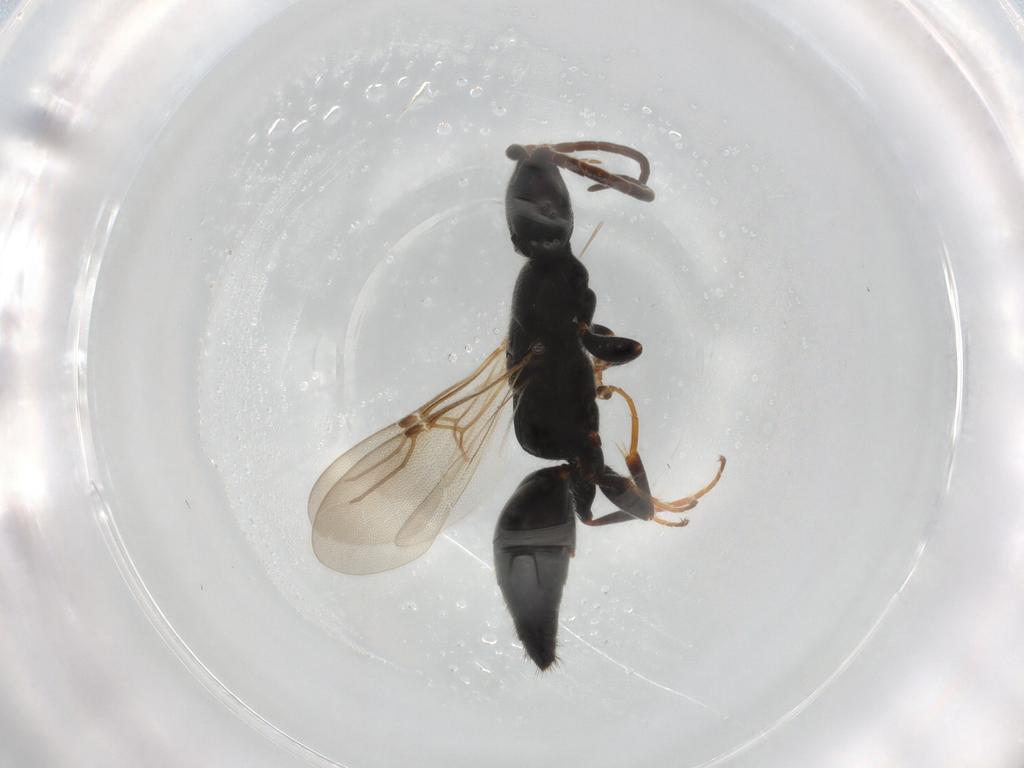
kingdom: Animalia
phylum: Arthropoda
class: Insecta
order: Hymenoptera
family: Bethylidae
